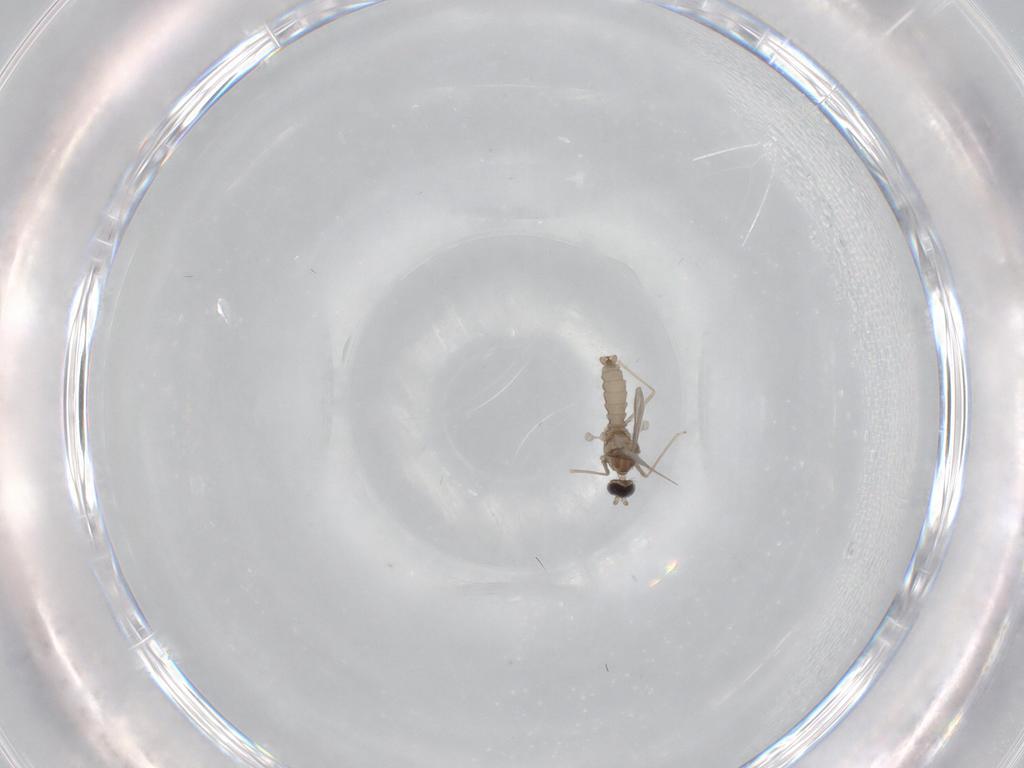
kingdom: Animalia
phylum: Arthropoda
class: Insecta
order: Diptera
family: Cecidomyiidae
